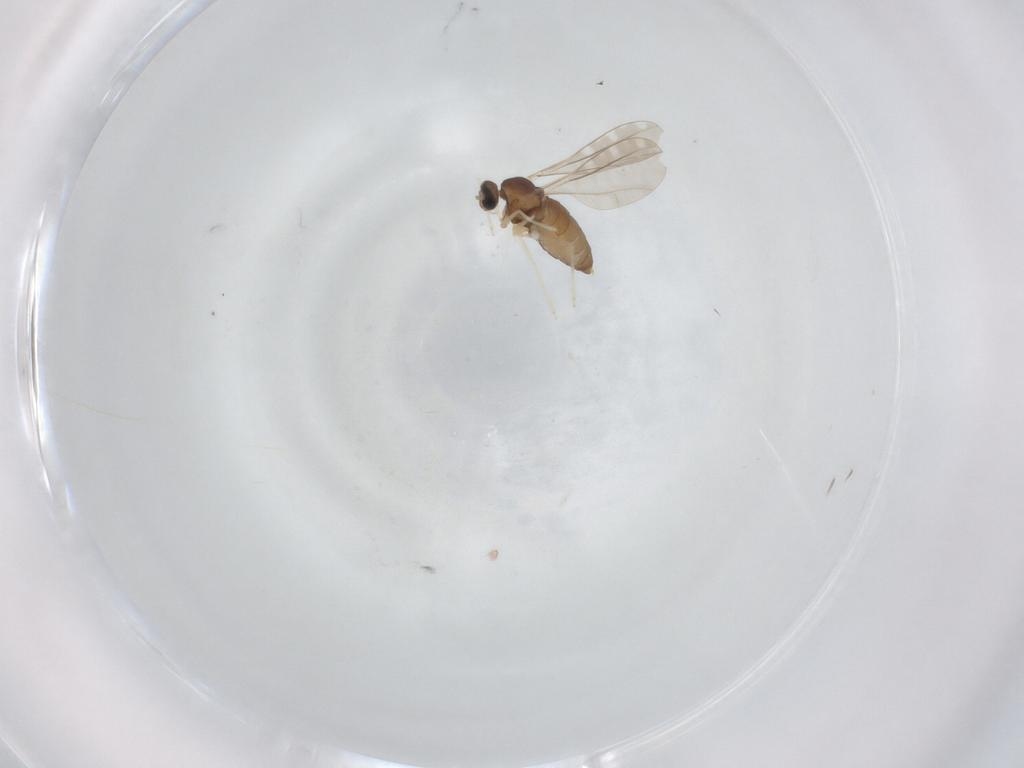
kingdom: Animalia
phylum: Arthropoda
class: Insecta
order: Diptera
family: Cecidomyiidae
